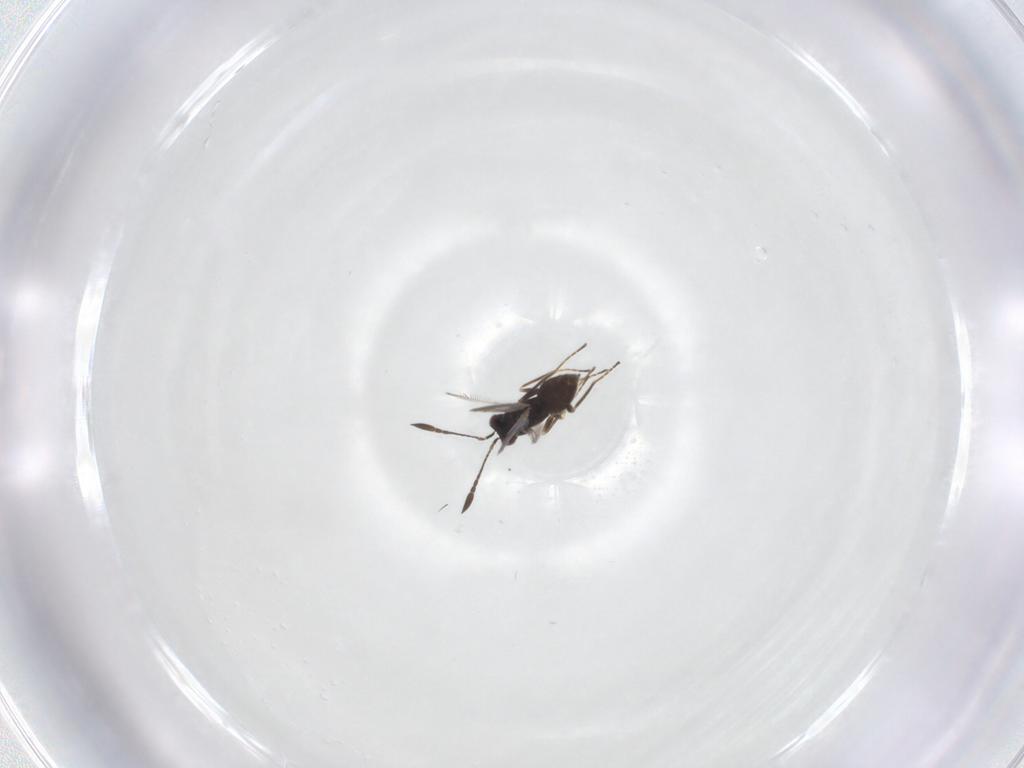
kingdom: Animalia
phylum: Arthropoda
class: Insecta
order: Hymenoptera
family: Mymaridae
